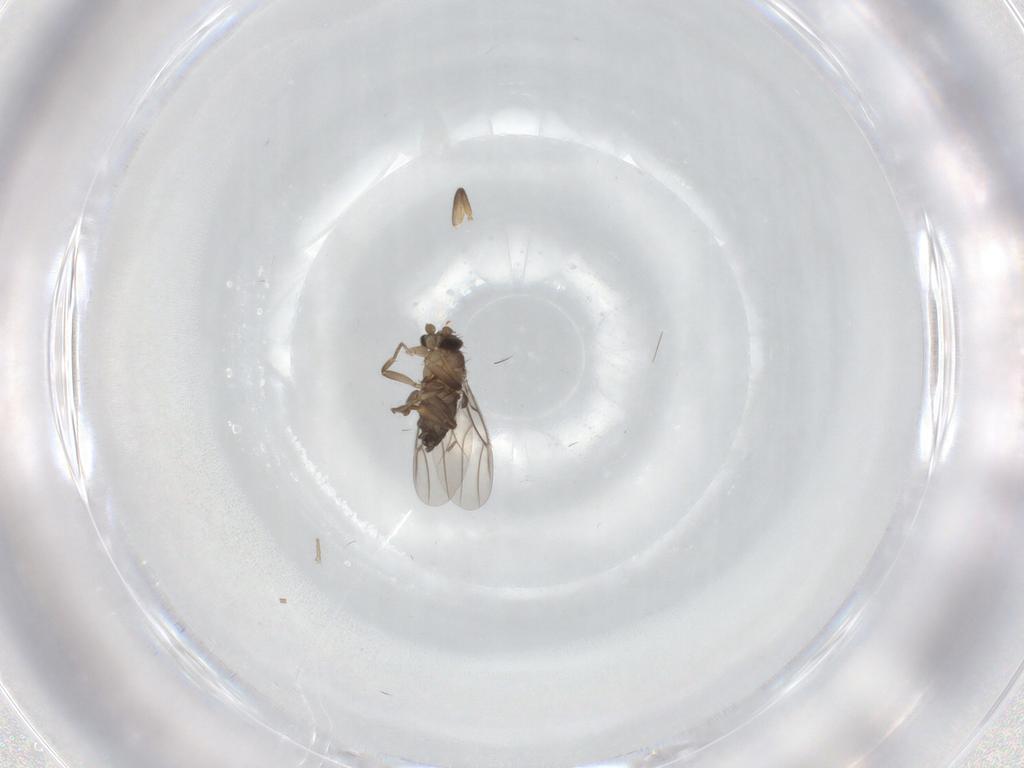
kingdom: Animalia
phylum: Arthropoda
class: Insecta
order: Diptera
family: Phoridae
